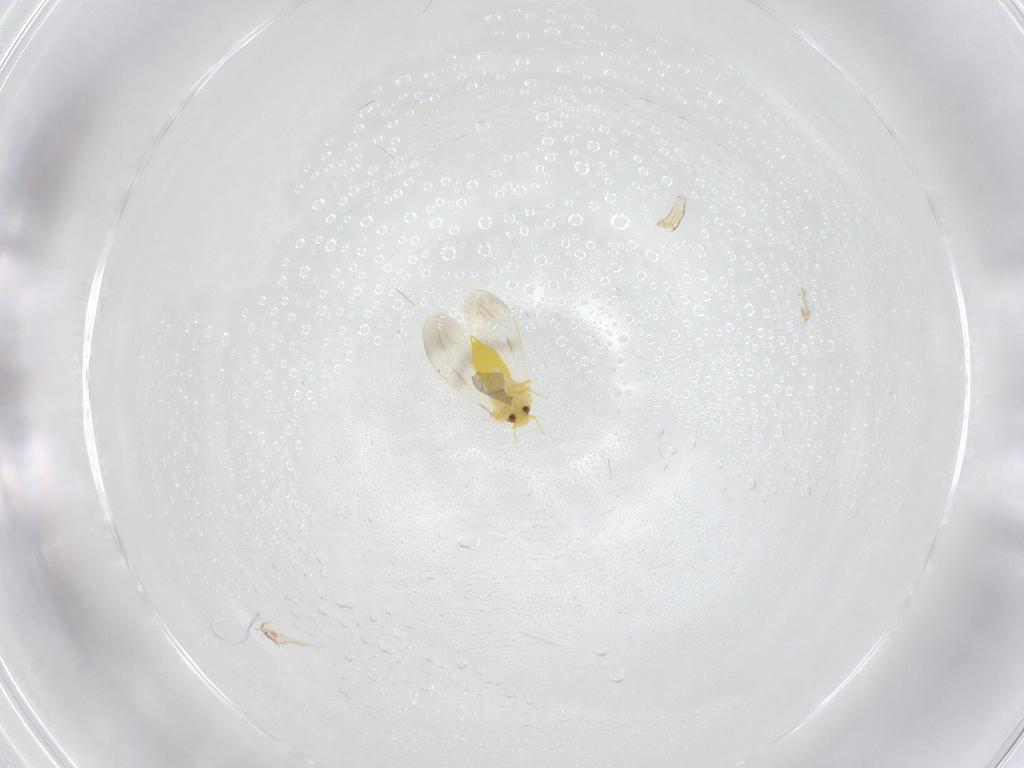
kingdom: Animalia
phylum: Arthropoda
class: Insecta
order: Hemiptera
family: Aleyrodidae
